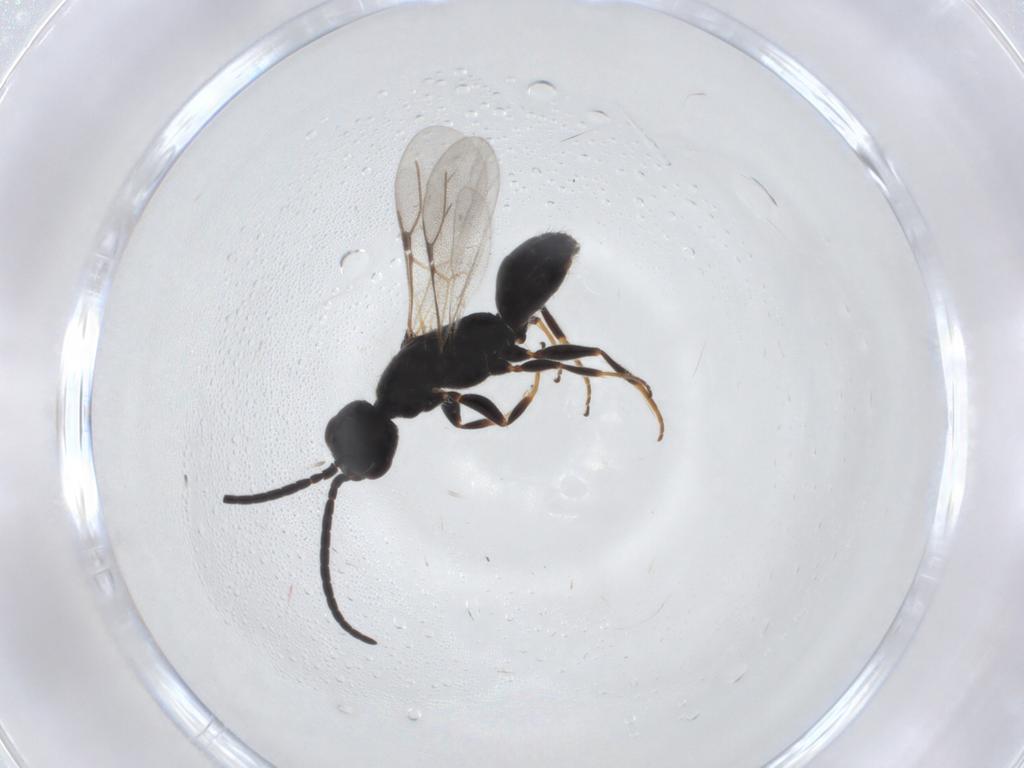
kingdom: Animalia
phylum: Arthropoda
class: Insecta
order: Hymenoptera
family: Bethylidae
